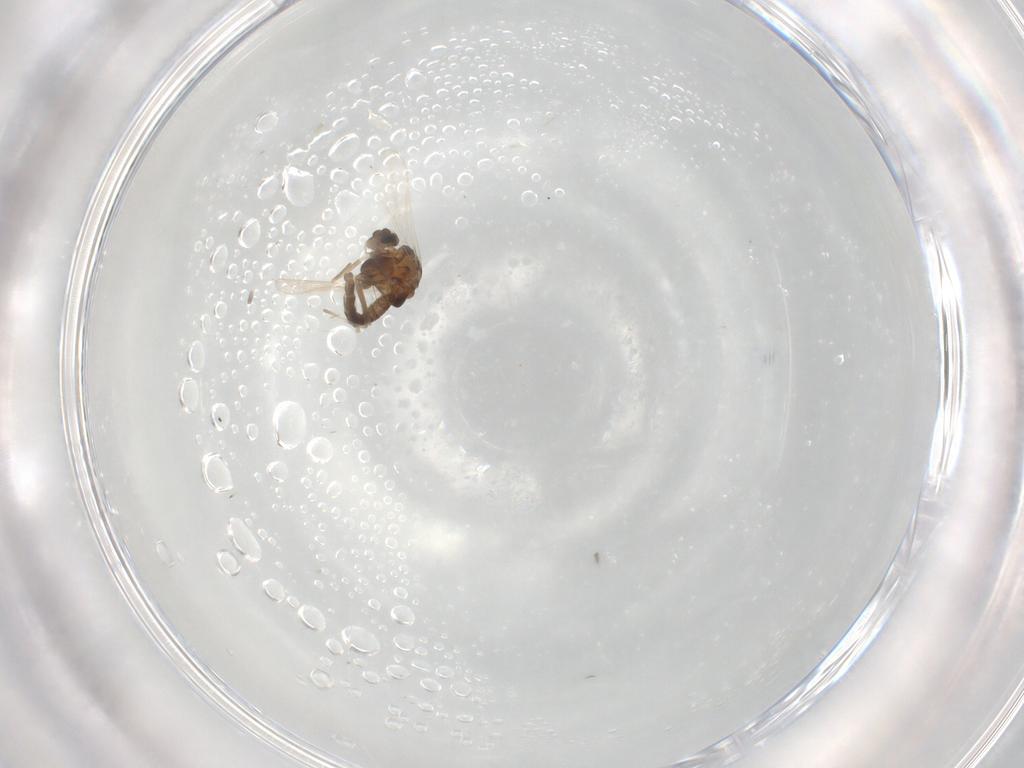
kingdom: Animalia
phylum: Arthropoda
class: Insecta
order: Diptera
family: Chironomidae
